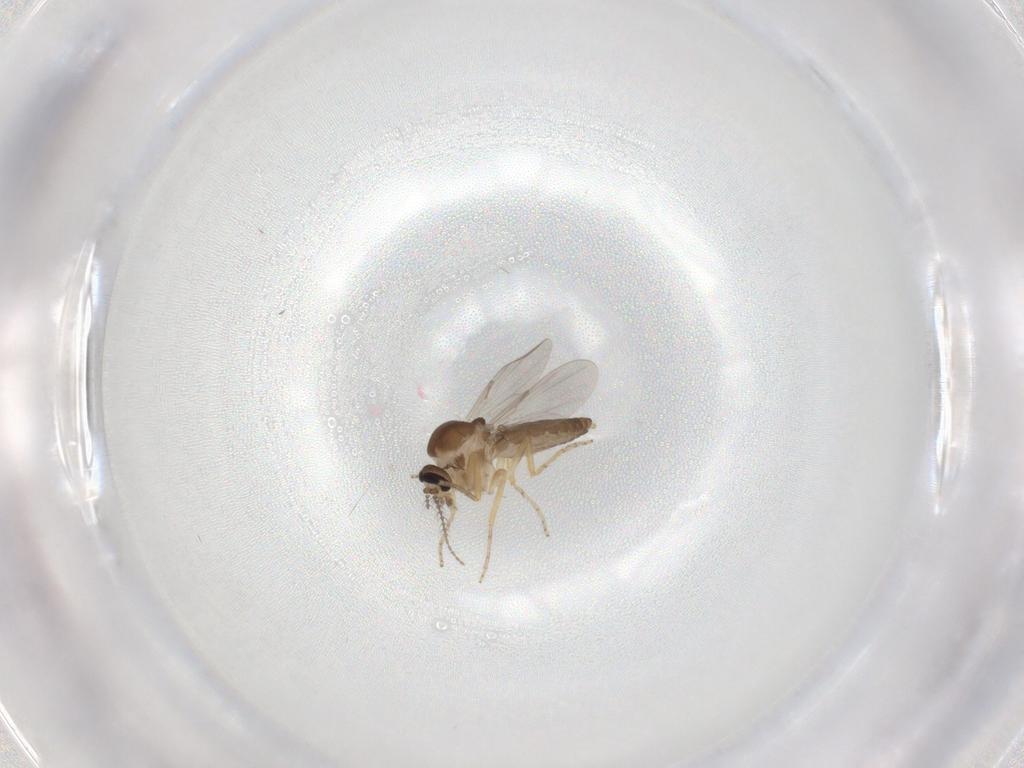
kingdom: Animalia
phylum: Arthropoda
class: Insecta
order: Diptera
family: Ceratopogonidae
